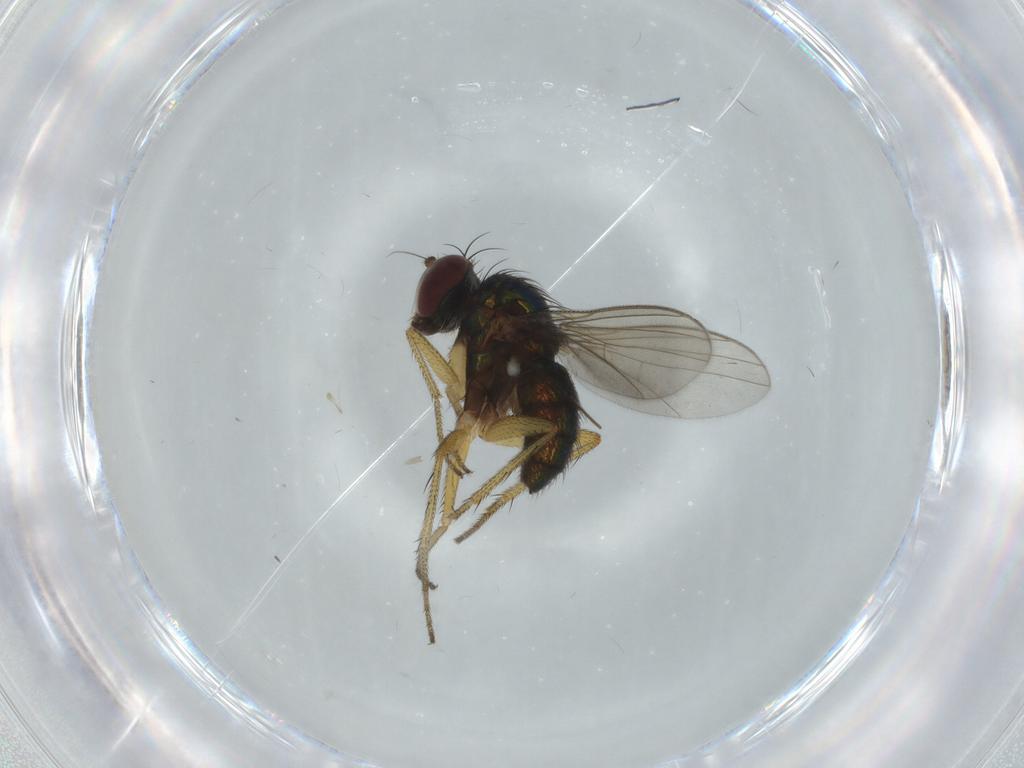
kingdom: Animalia
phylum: Arthropoda
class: Insecta
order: Diptera
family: Dolichopodidae
